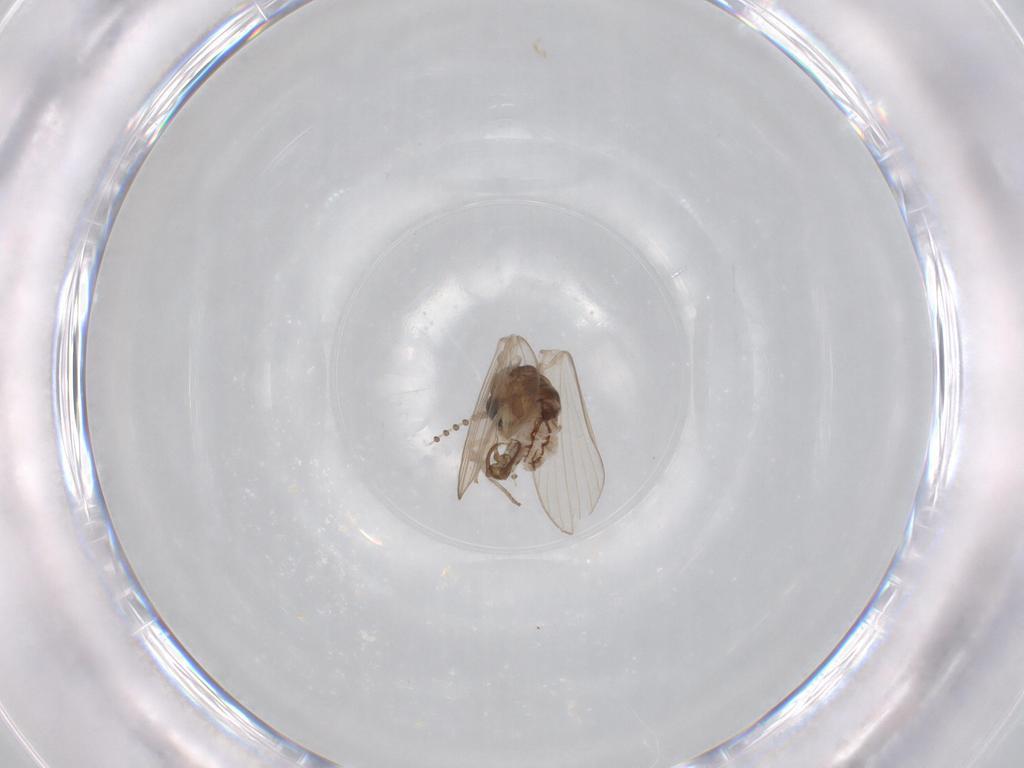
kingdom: Animalia
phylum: Arthropoda
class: Insecta
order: Diptera
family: Psychodidae
